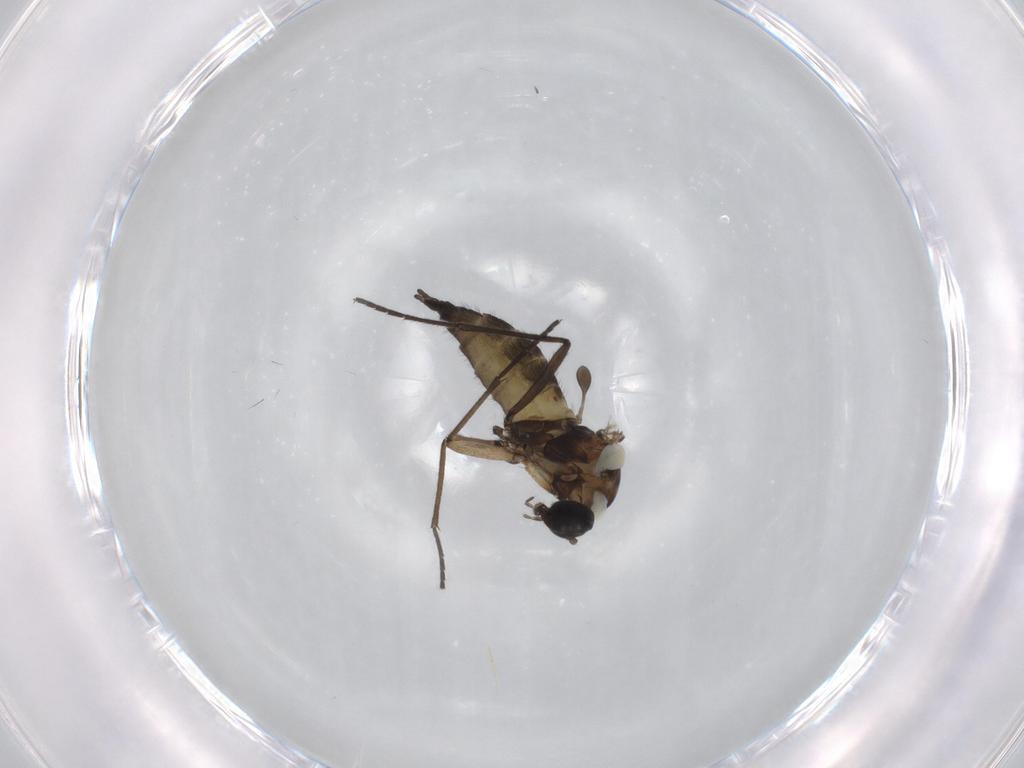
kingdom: Animalia
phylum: Arthropoda
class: Insecta
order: Diptera
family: Sciaridae
